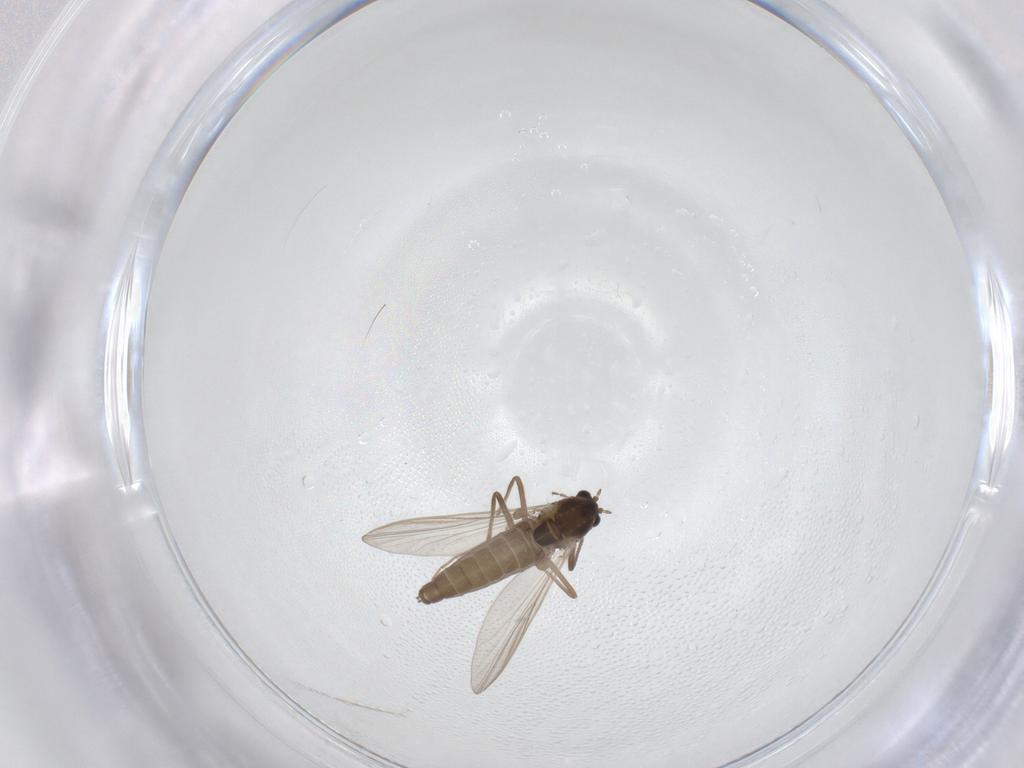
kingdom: Animalia
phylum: Arthropoda
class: Insecta
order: Diptera
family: Chironomidae
